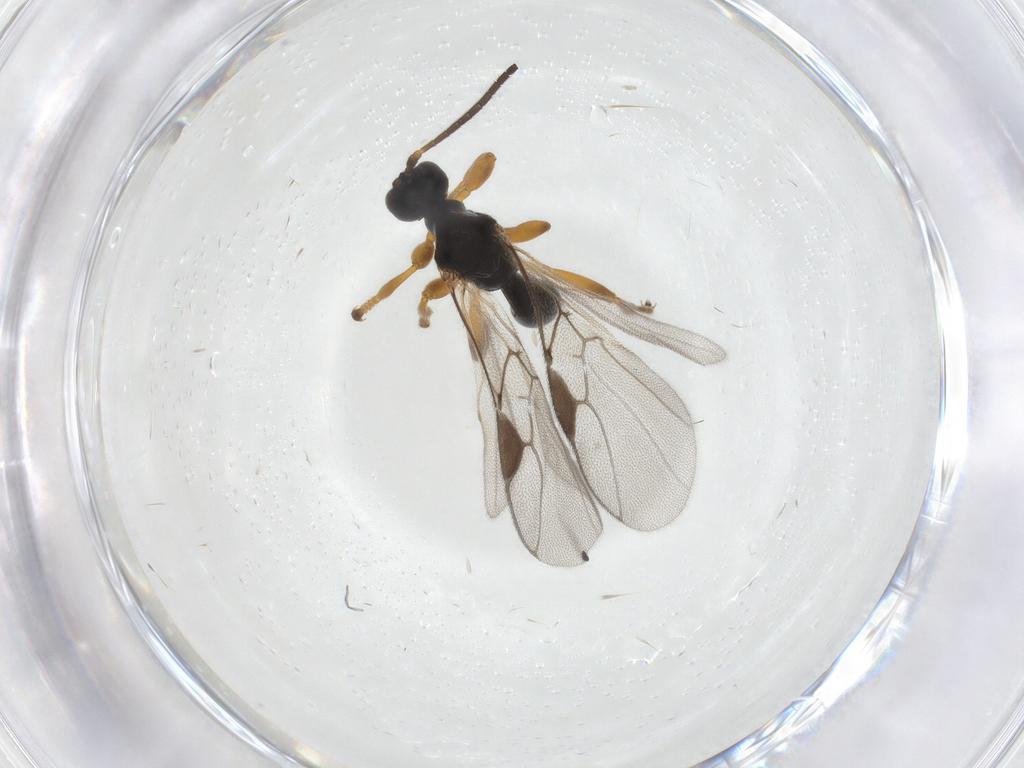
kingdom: Animalia
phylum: Arthropoda
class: Insecta
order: Hymenoptera
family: Braconidae
